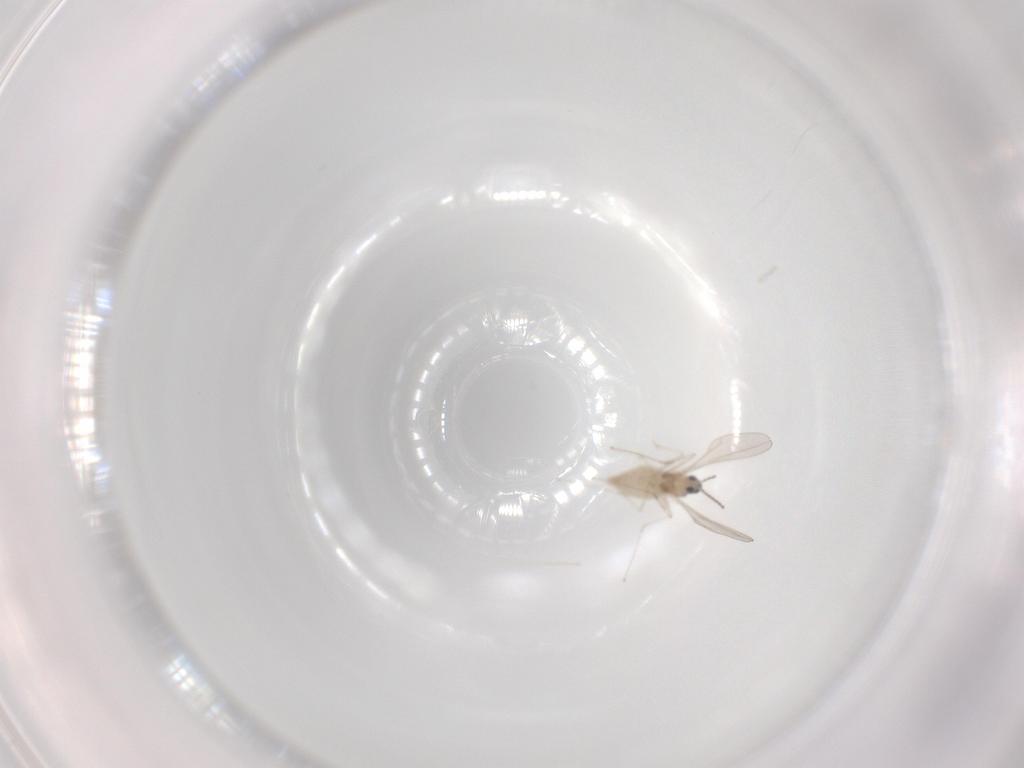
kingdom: Animalia
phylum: Arthropoda
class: Insecta
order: Diptera
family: Cecidomyiidae
